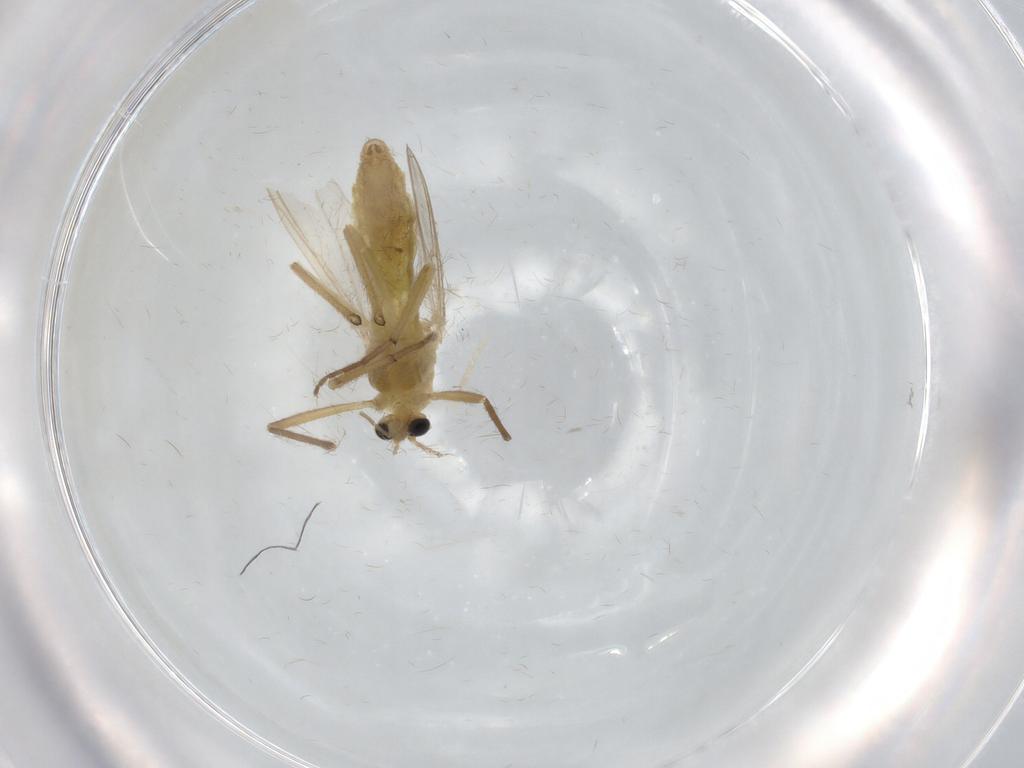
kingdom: Animalia
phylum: Arthropoda
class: Insecta
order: Diptera
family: Chironomidae
